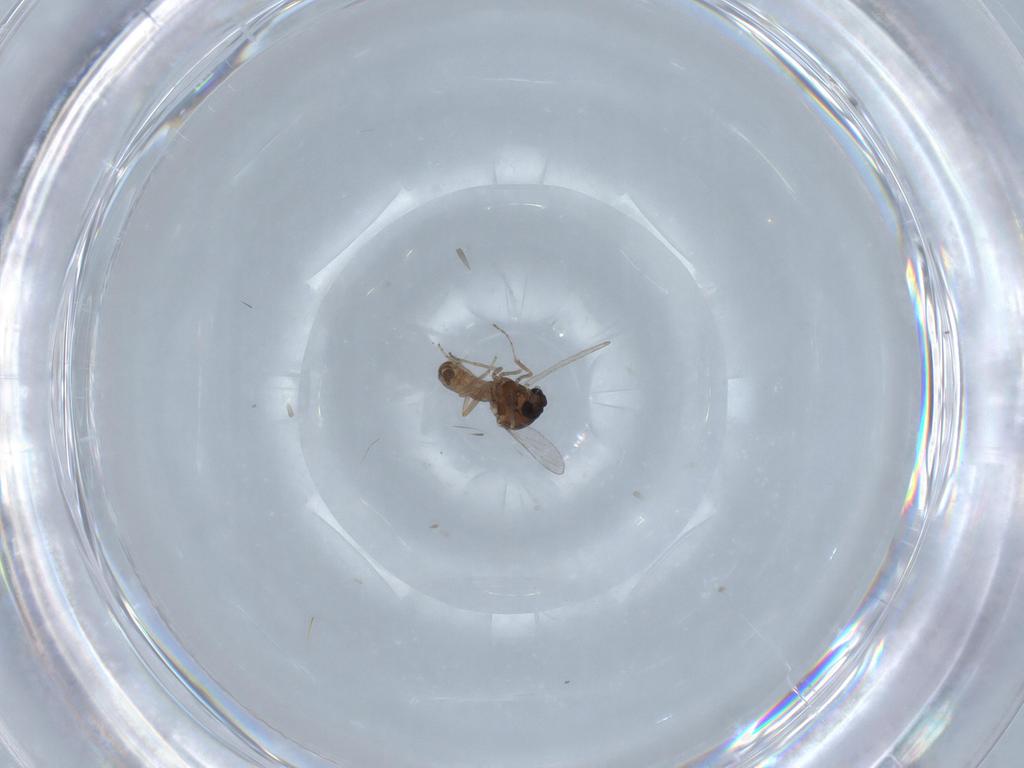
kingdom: Animalia
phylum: Arthropoda
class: Insecta
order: Diptera
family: Ceratopogonidae
